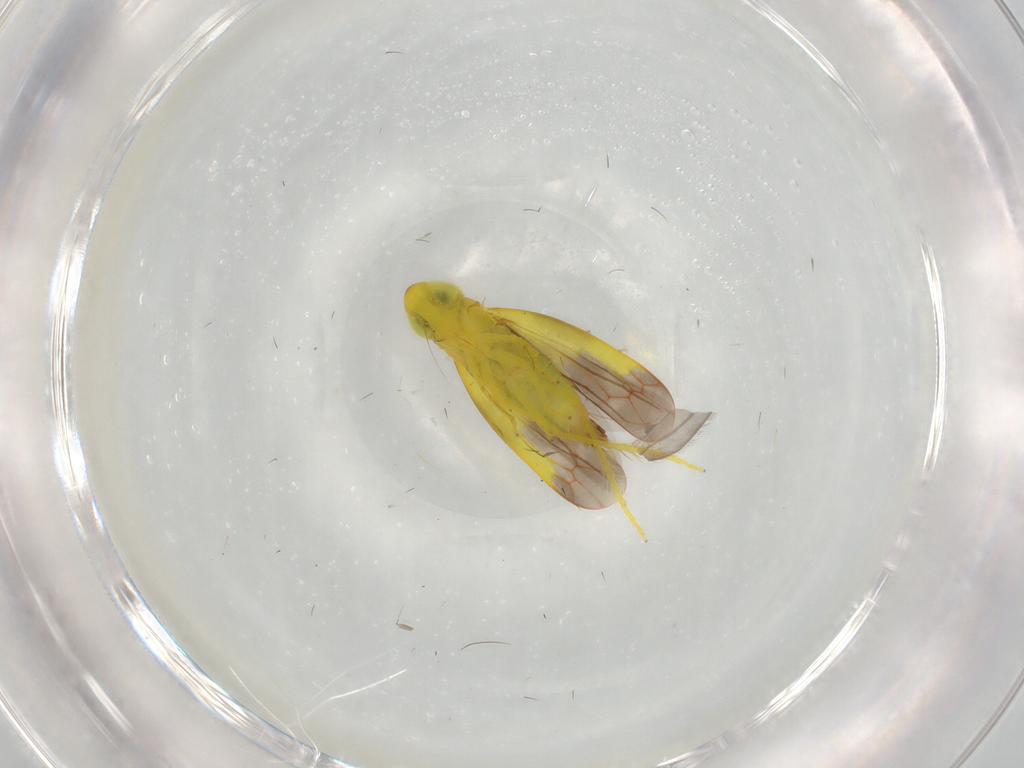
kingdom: Animalia
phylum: Arthropoda
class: Insecta
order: Hemiptera
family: Cicadellidae
